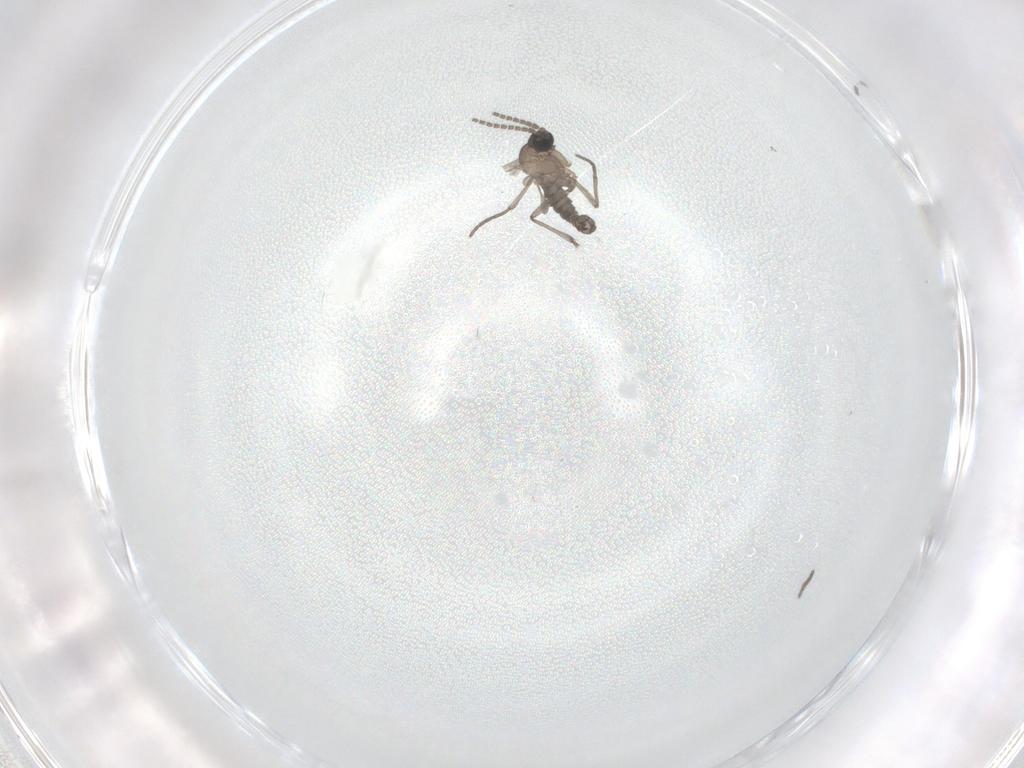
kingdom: Animalia
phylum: Arthropoda
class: Insecta
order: Diptera
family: Sciaridae
